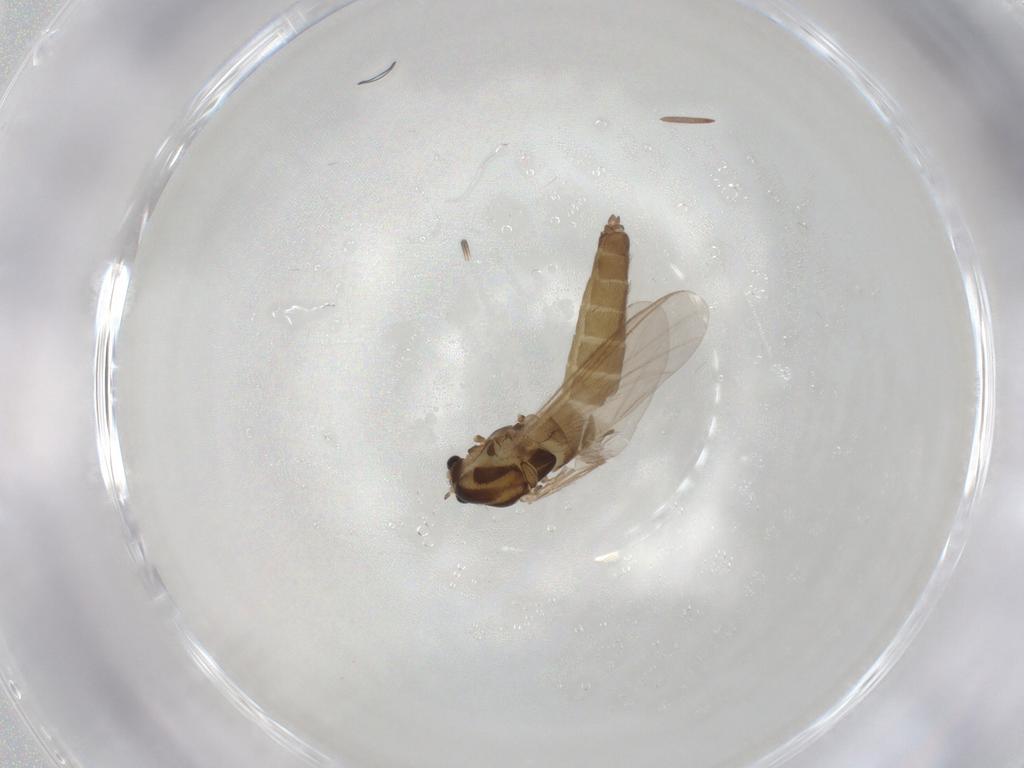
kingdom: Animalia
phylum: Arthropoda
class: Insecta
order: Diptera
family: Chironomidae
